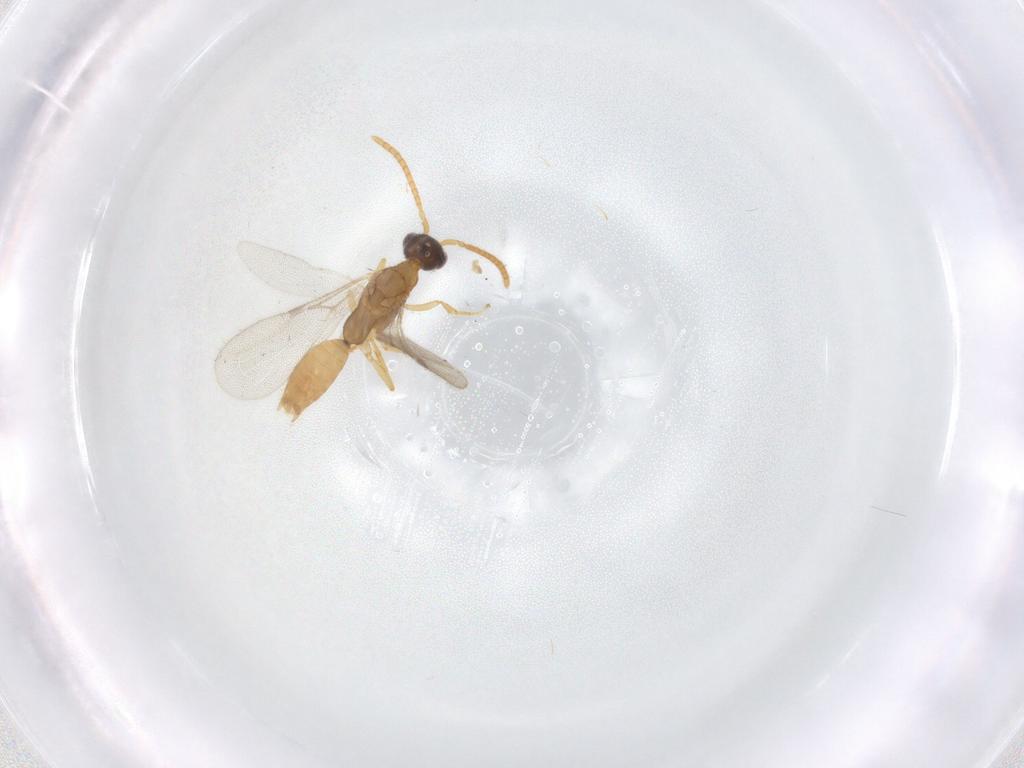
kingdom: Animalia
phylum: Arthropoda
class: Insecta
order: Hymenoptera
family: Bethylidae
